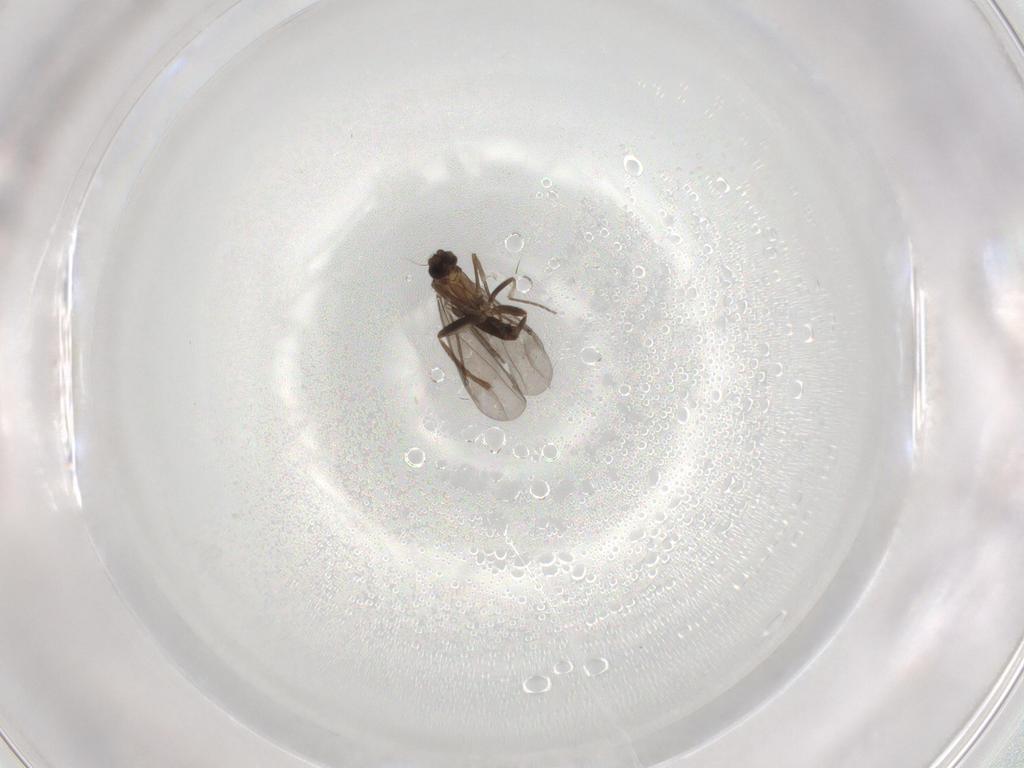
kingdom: Animalia
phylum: Arthropoda
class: Insecta
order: Diptera
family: Phoridae
